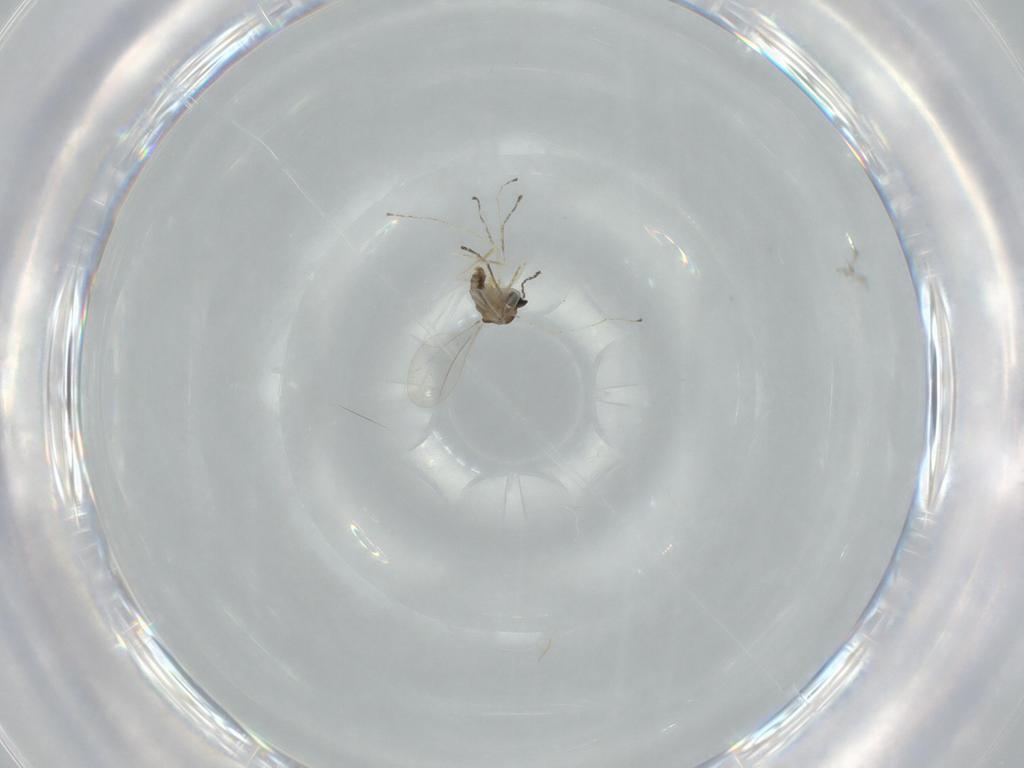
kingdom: Animalia
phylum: Arthropoda
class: Insecta
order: Diptera
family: Cecidomyiidae
